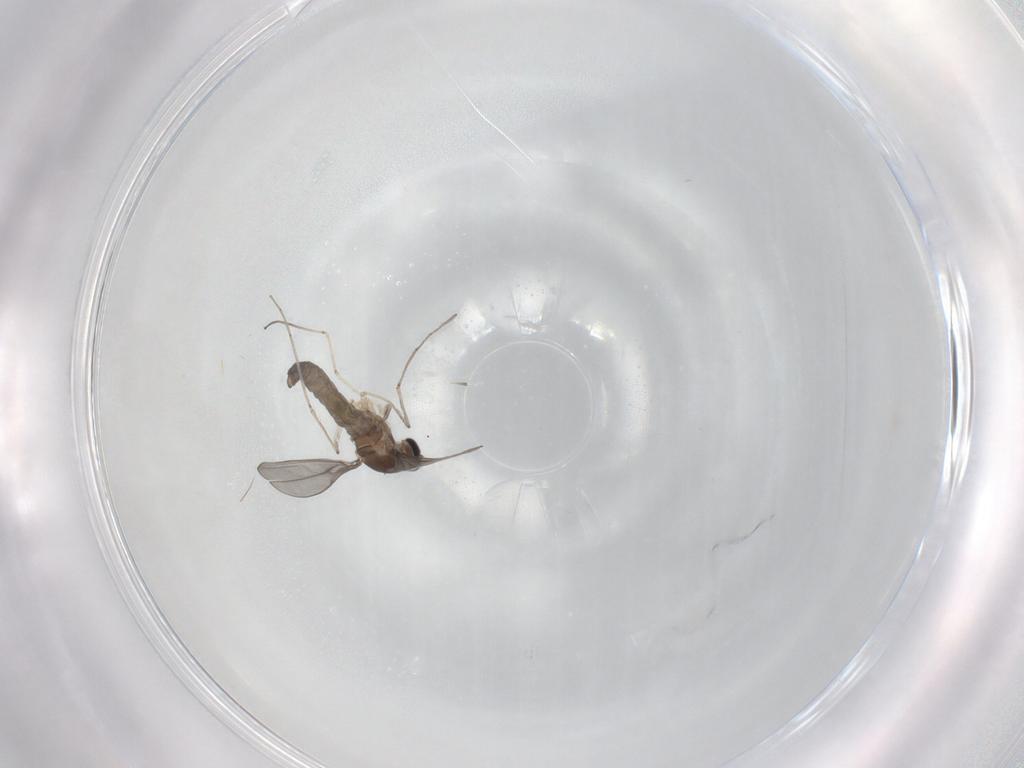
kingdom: Animalia
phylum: Arthropoda
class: Insecta
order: Diptera
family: Cecidomyiidae
